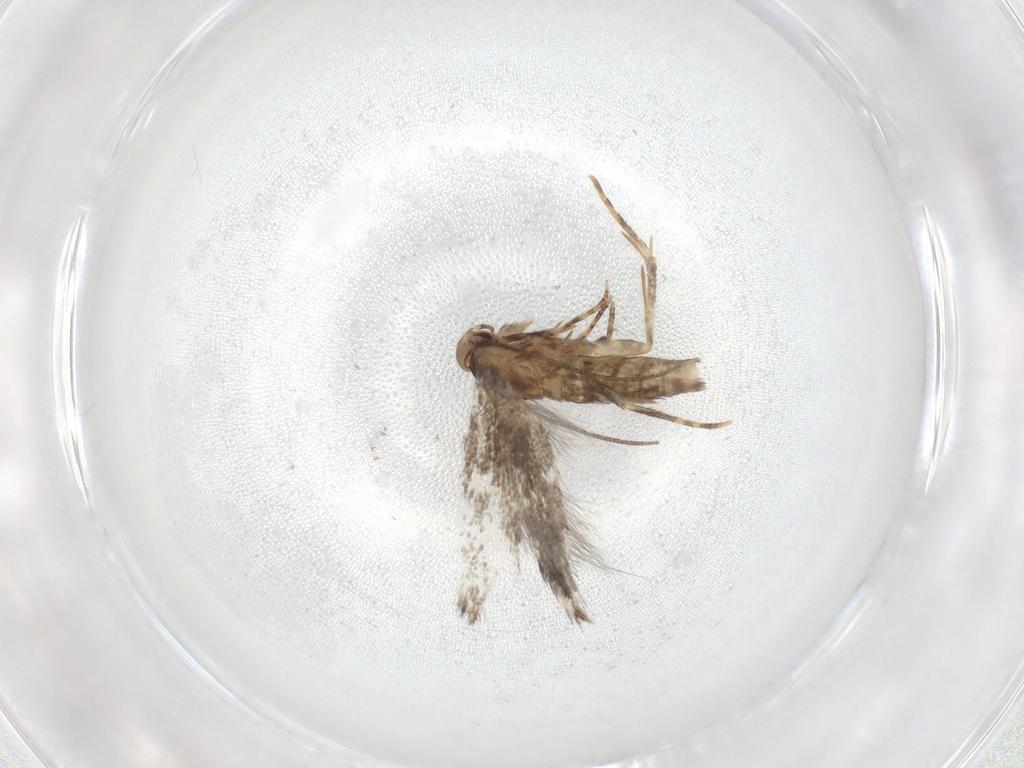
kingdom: Animalia
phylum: Arthropoda
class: Insecta
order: Lepidoptera
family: Elachistidae
